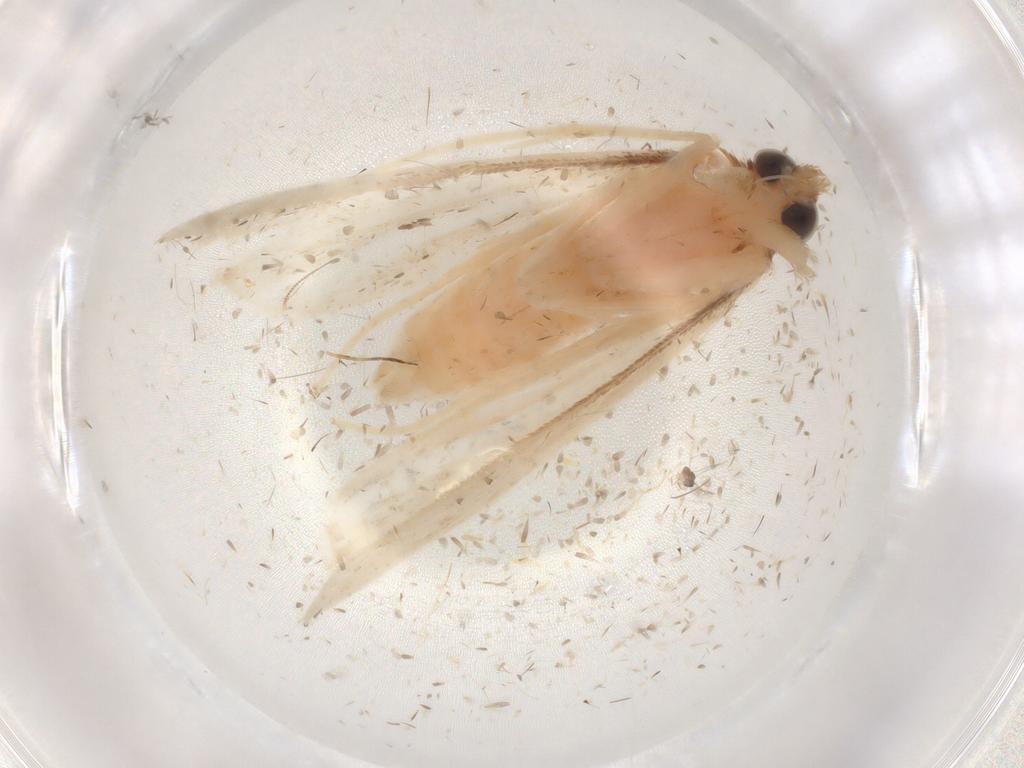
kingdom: Animalia
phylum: Arthropoda
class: Insecta
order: Lepidoptera
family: Crambidae
